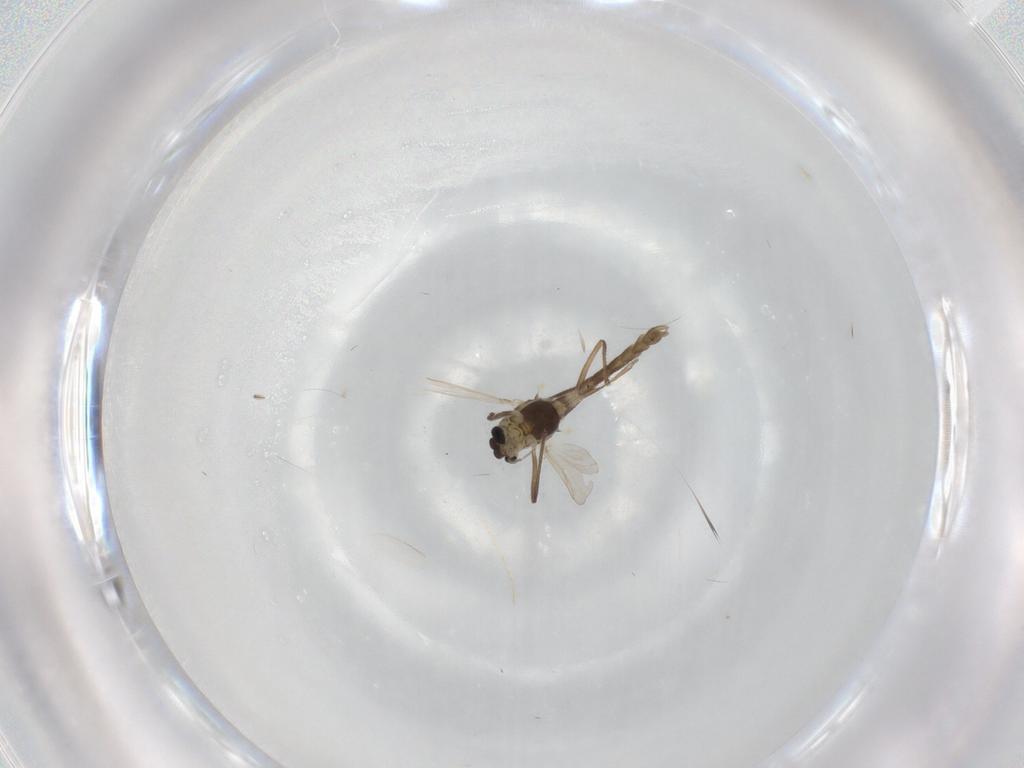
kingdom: Animalia
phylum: Arthropoda
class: Insecta
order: Diptera
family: Chironomidae
